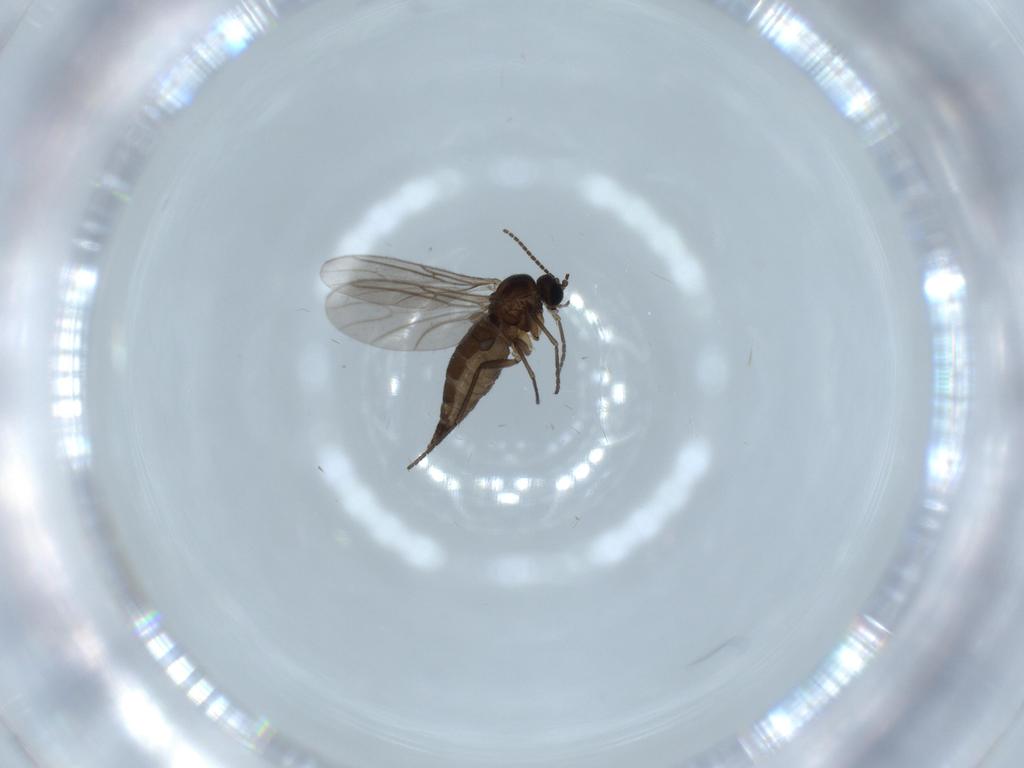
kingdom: Animalia
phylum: Arthropoda
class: Insecta
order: Diptera
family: Sciaridae
